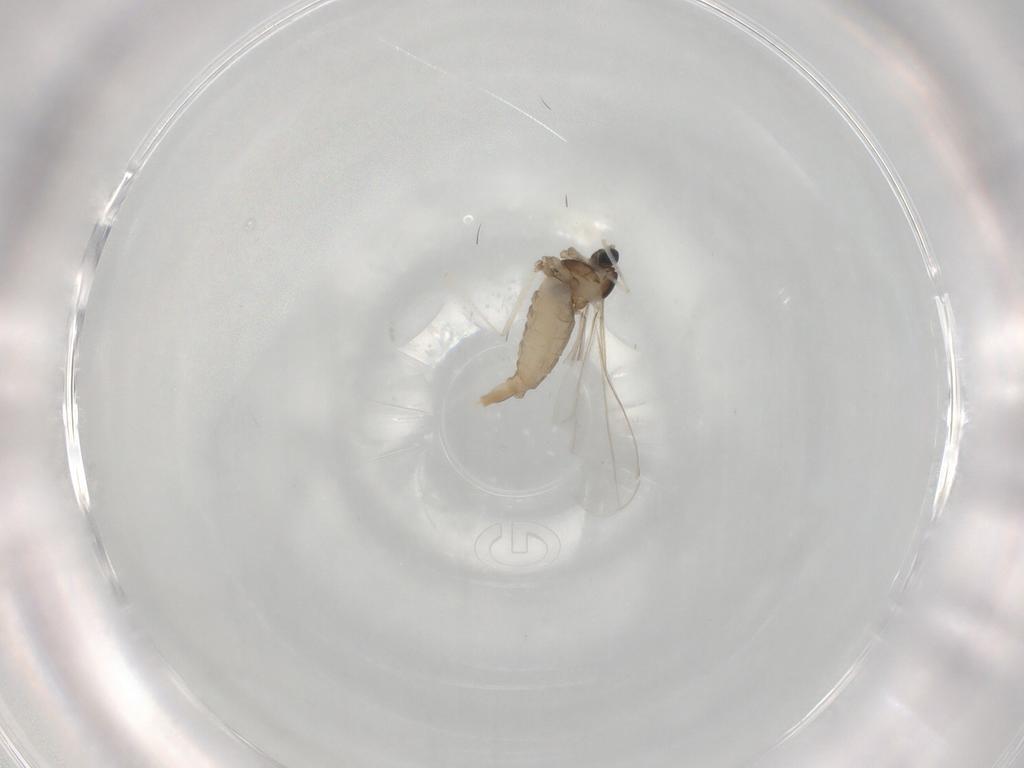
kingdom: Animalia
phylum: Arthropoda
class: Insecta
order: Diptera
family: Cecidomyiidae
